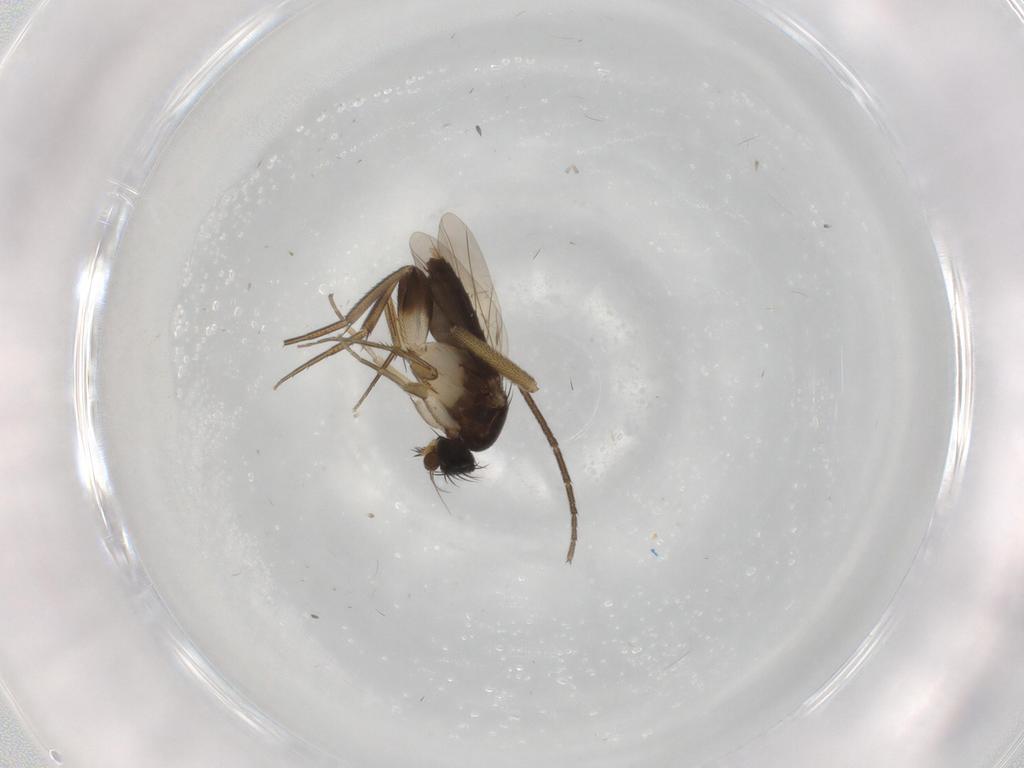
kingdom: Animalia
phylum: Arthropoda
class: Insecta
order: Diptera
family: Phoridae
